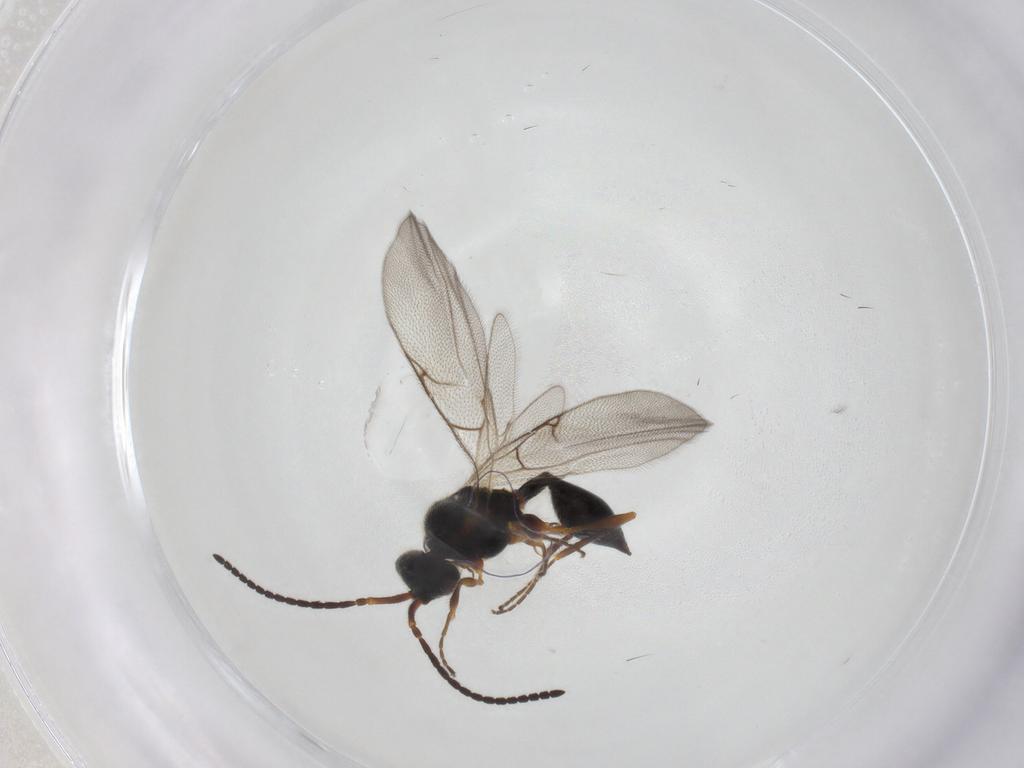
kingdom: Animalia
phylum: Arthropoda
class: Insecta
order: Hymenoptera
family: Diapriidae
